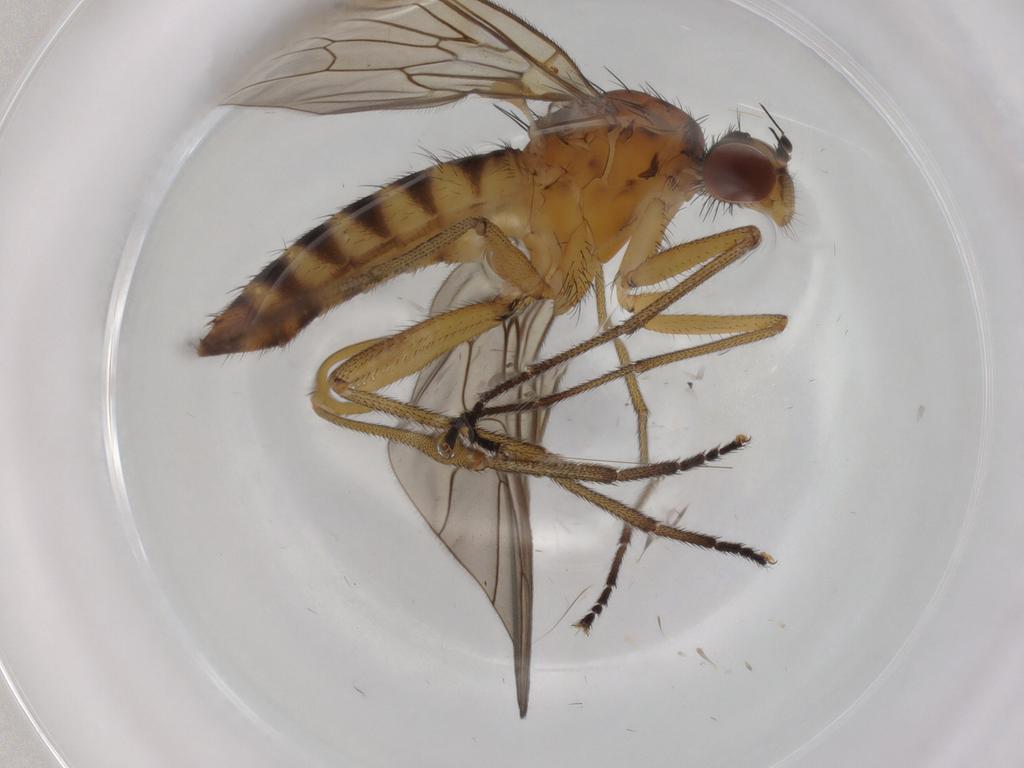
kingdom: Animalia
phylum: Arthropoda
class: Insecta
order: Diptera
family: Brachystomatidae
